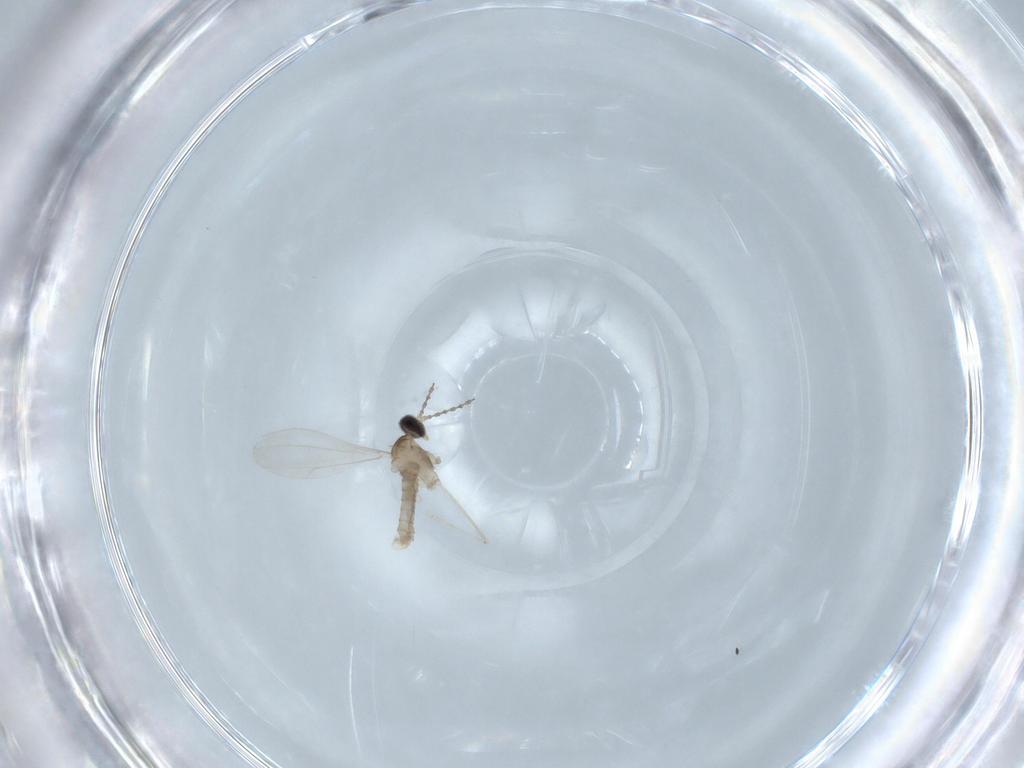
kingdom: Animalia
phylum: Arthropoda
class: Insecta
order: Diptera
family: Cecidomyiidae
